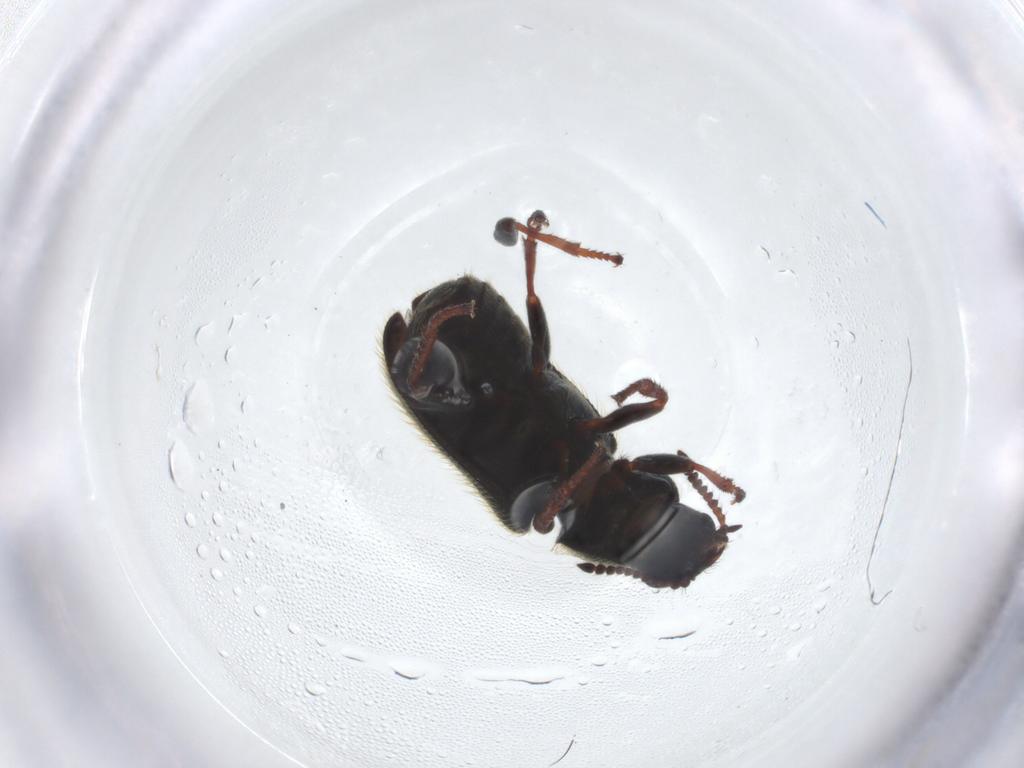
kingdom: Animalia
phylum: Arthropoda
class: Insecta
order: Coleoptera
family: Melyridae
